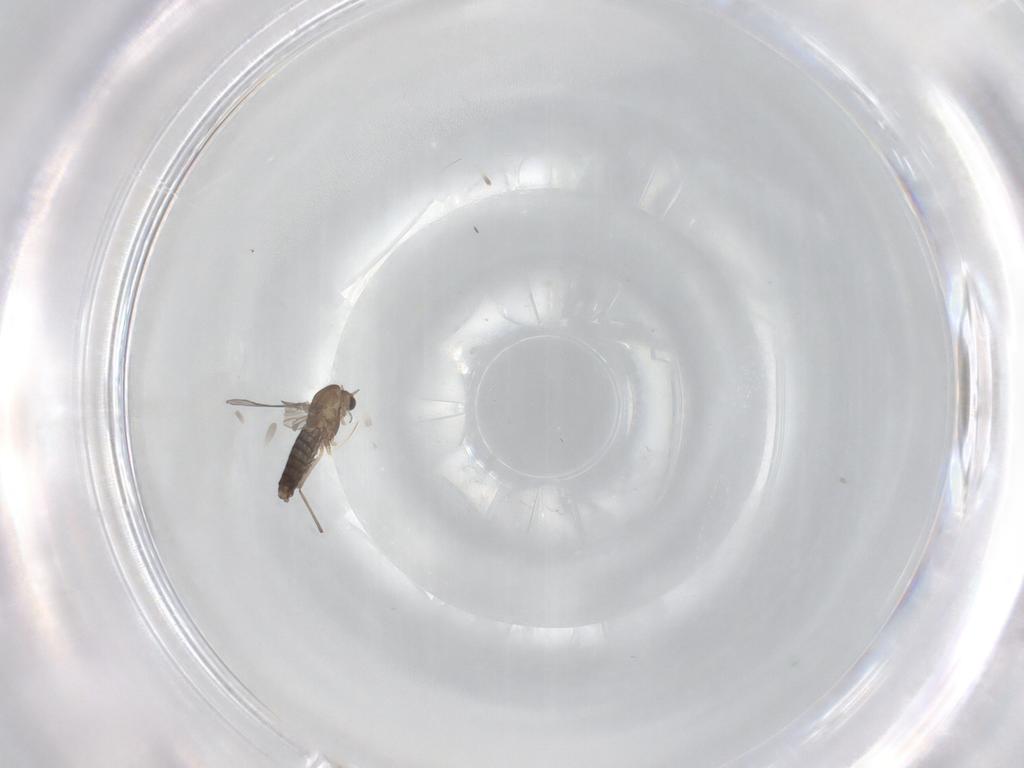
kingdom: Animalia
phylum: Arthropoda
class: Insecta
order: Diptera
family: Chironomidae
